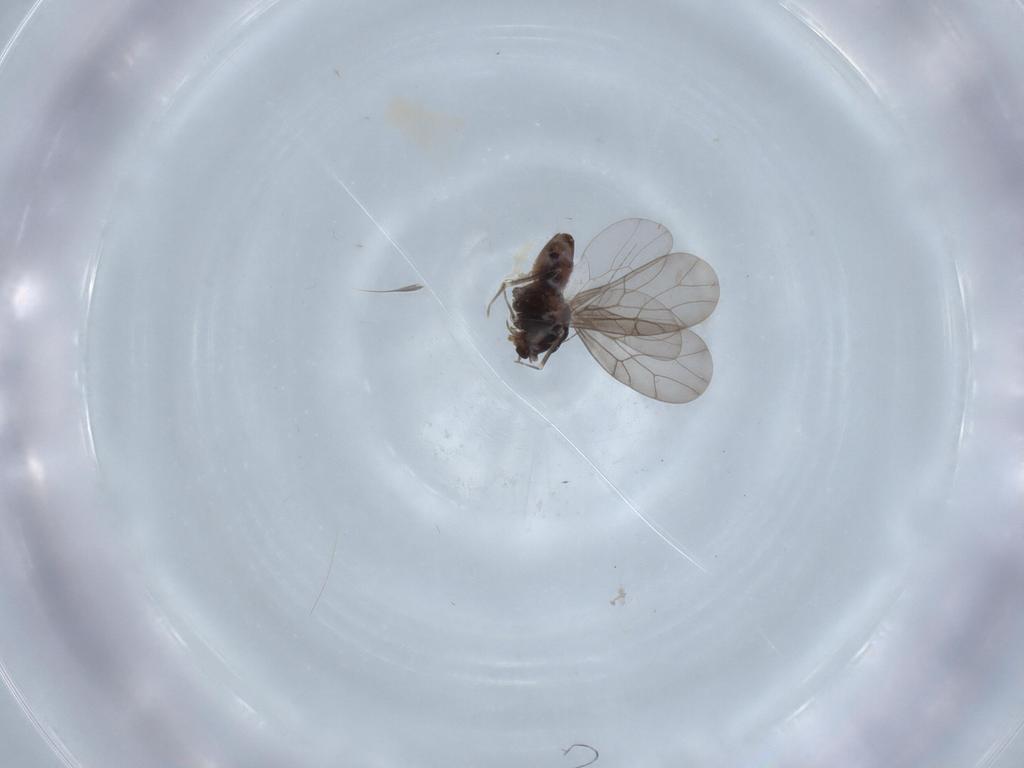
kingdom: Animalia
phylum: Arthropoda
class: Insecta
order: Psocodea
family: Lepidopsocidae
